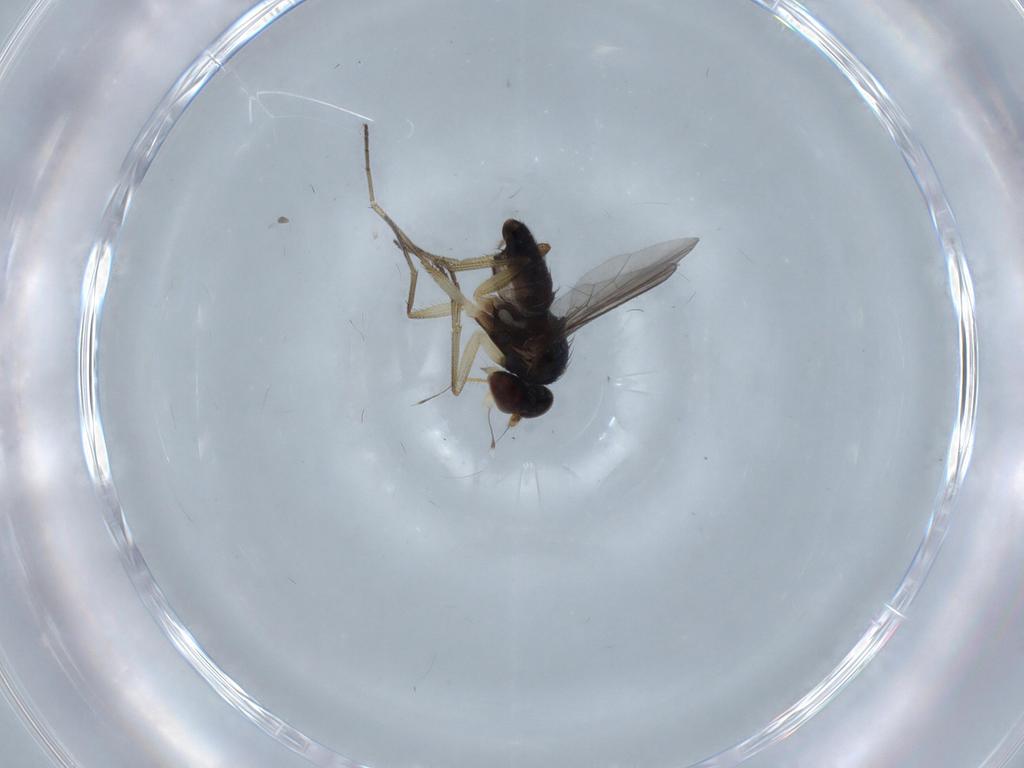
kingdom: Animalia
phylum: Arthropoda
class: Insecta
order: Diptera
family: Dolichopodidae
